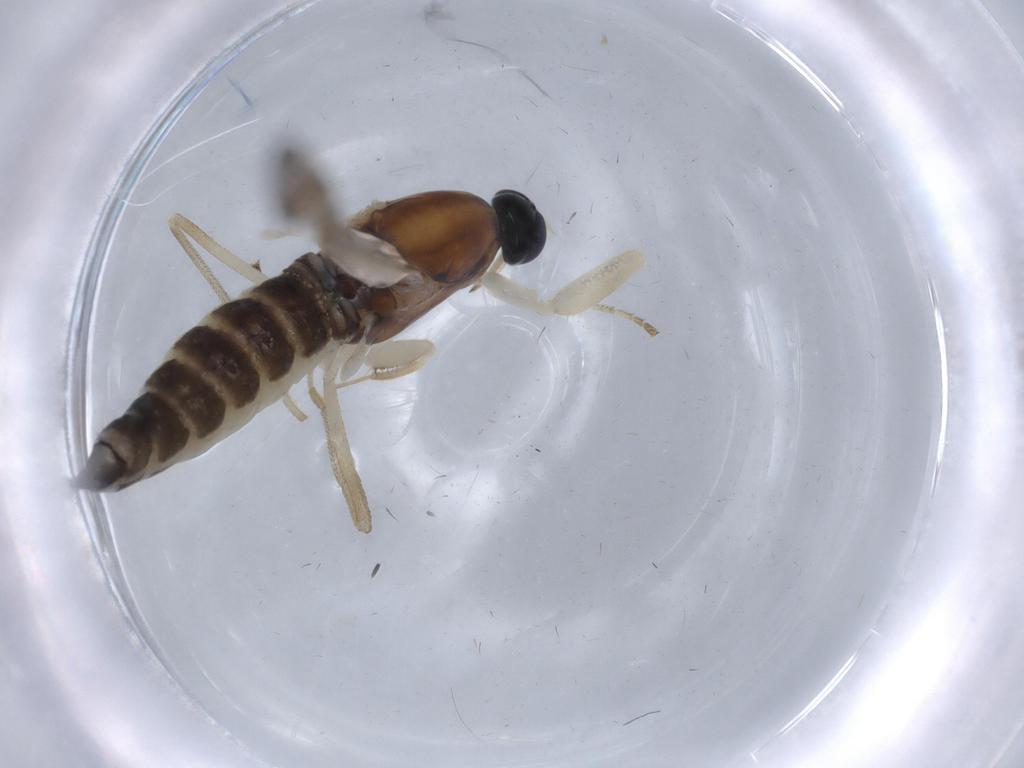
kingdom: Animalia
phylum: Arthropoda
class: Insecta
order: Diptera
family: Empididae
